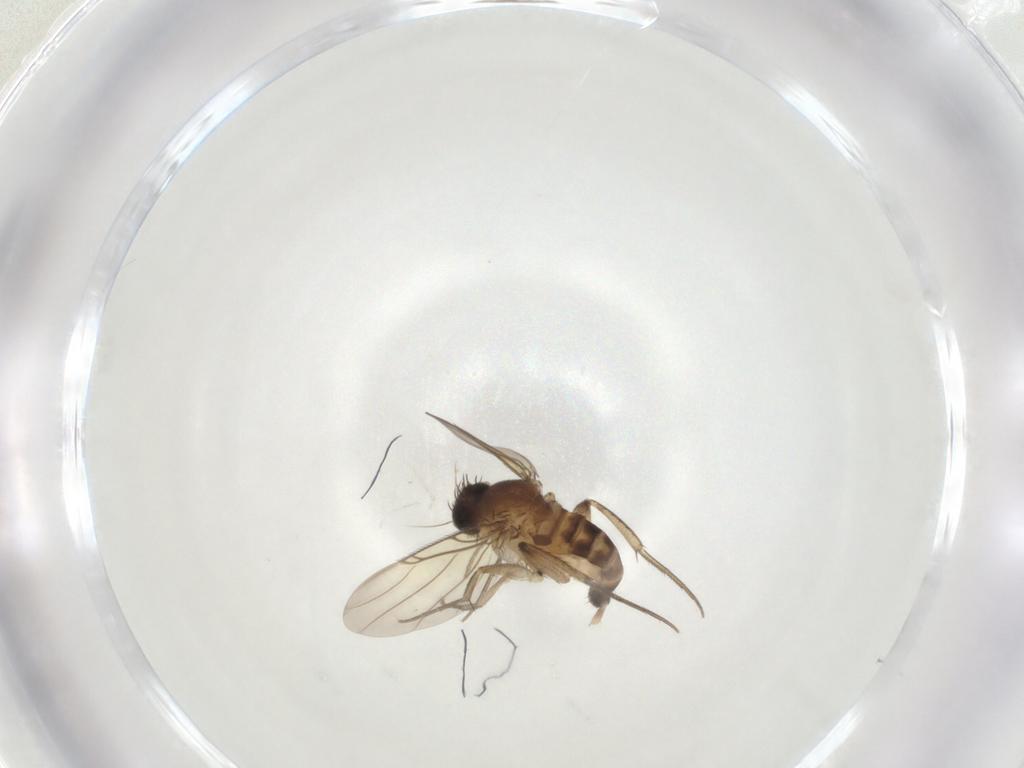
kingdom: Animalia
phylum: Arthropoda
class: Insecta
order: Diptera
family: Phoridae
